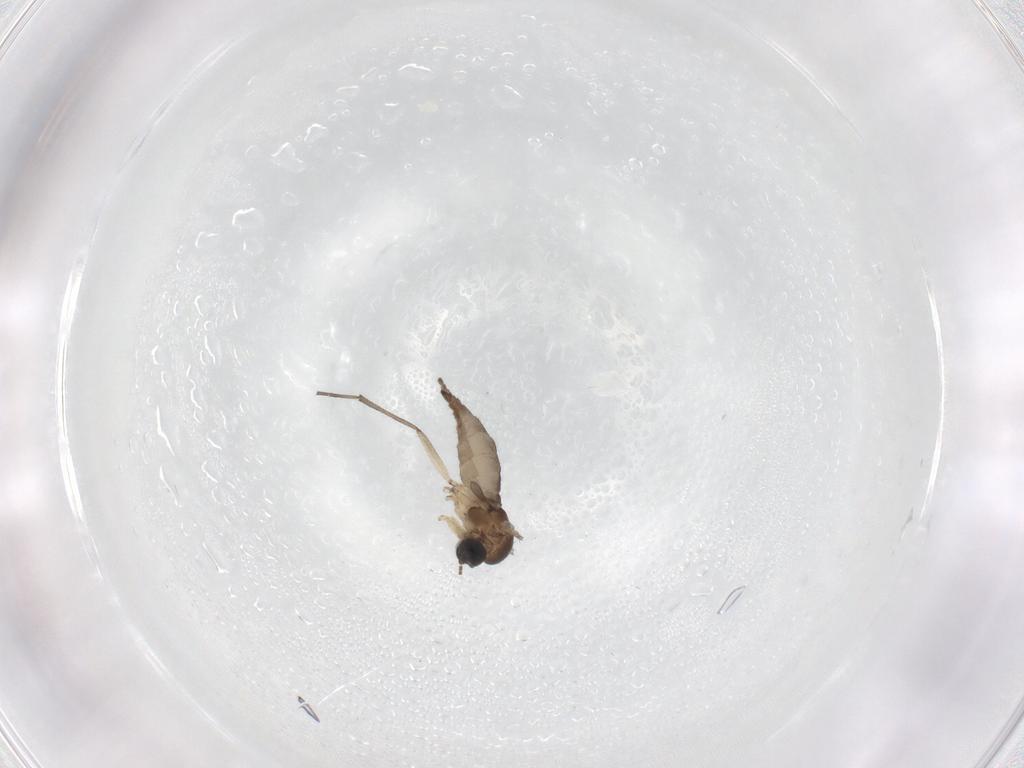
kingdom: Animalia
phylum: Arthropoda
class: Insecta
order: Diptera
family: Sciaridae
